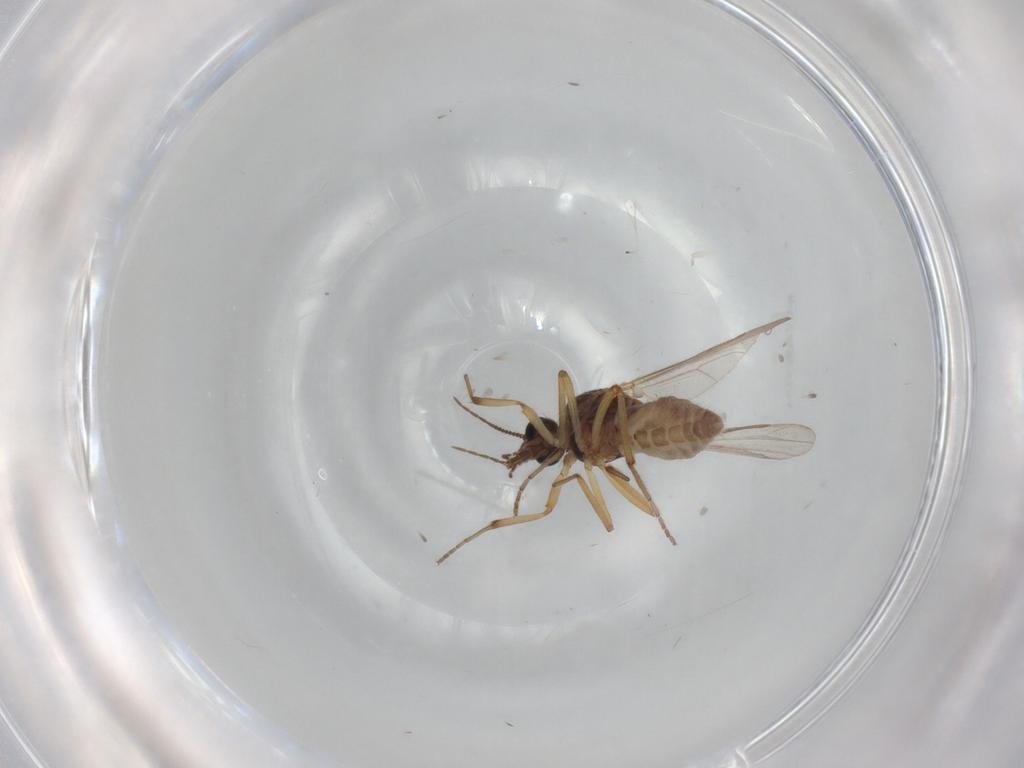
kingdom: Animalia
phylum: Arthropoda
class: Insecta
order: Diptera
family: Ceratopogonidae
